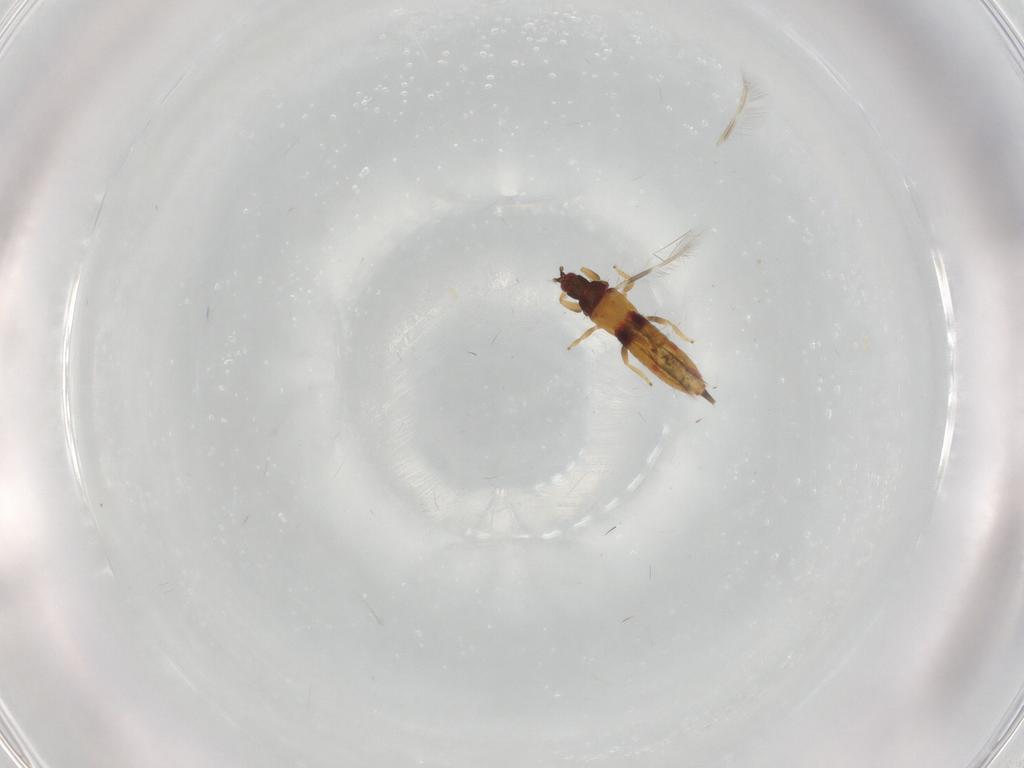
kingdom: Animalia
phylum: Arthropoda
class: Insecta
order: Thysanoptera
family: Phlaeothripidae
